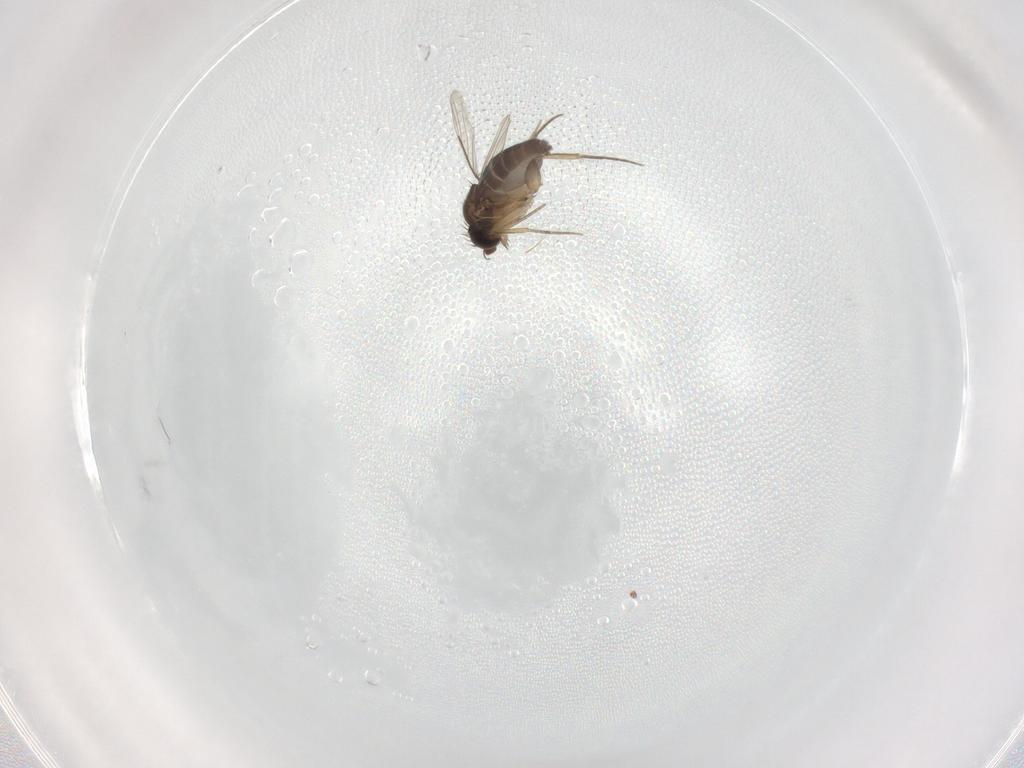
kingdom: Animalia
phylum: Arthropoda
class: Insecta
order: Diptera
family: Phoridae
